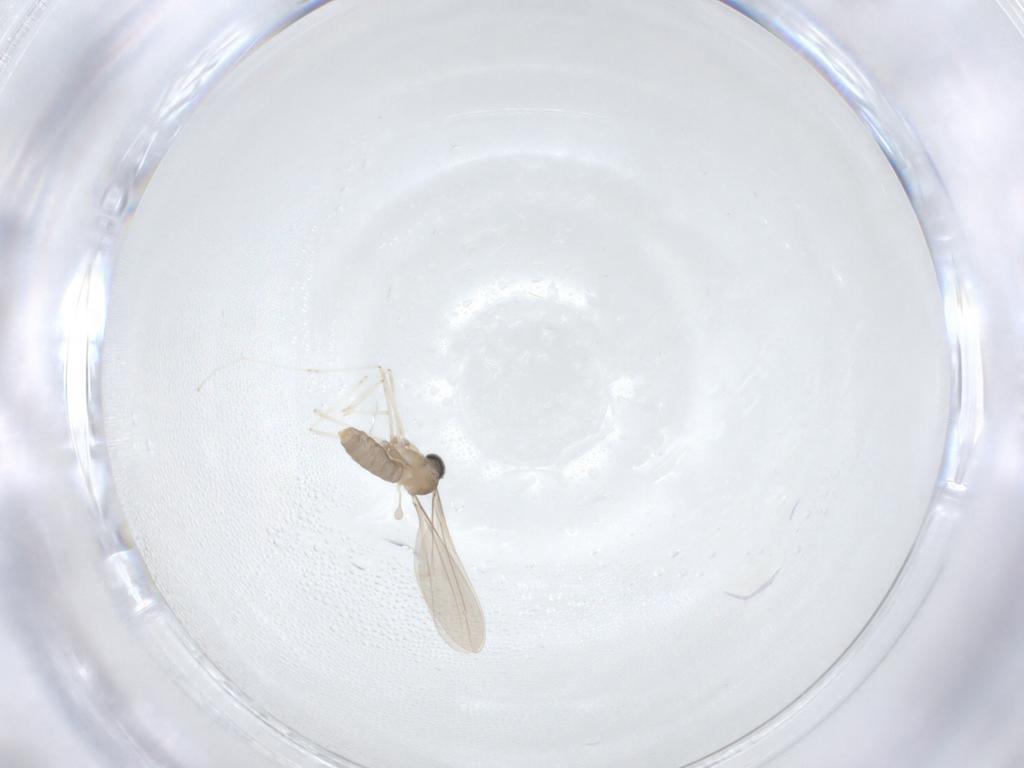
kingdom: Animalia
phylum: Arthropoda
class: Insecta
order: Diptera
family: Cecidomyiidae
